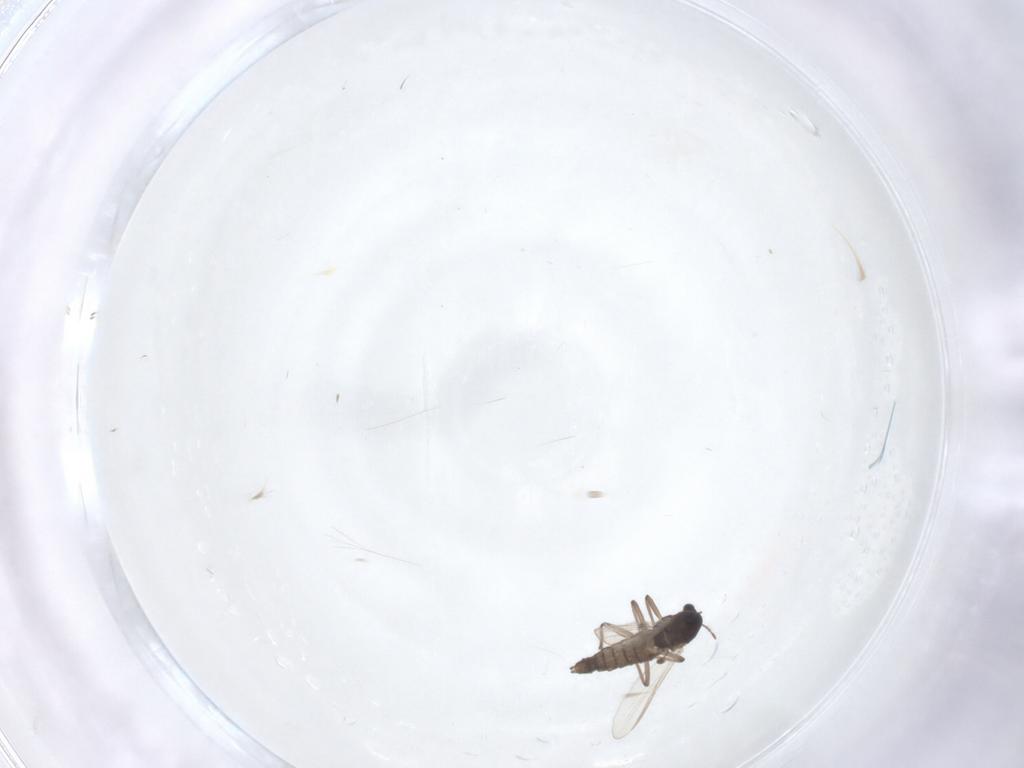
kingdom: Animalia
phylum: Arthropoda
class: Insecta
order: Diptera
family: Chironomidae
